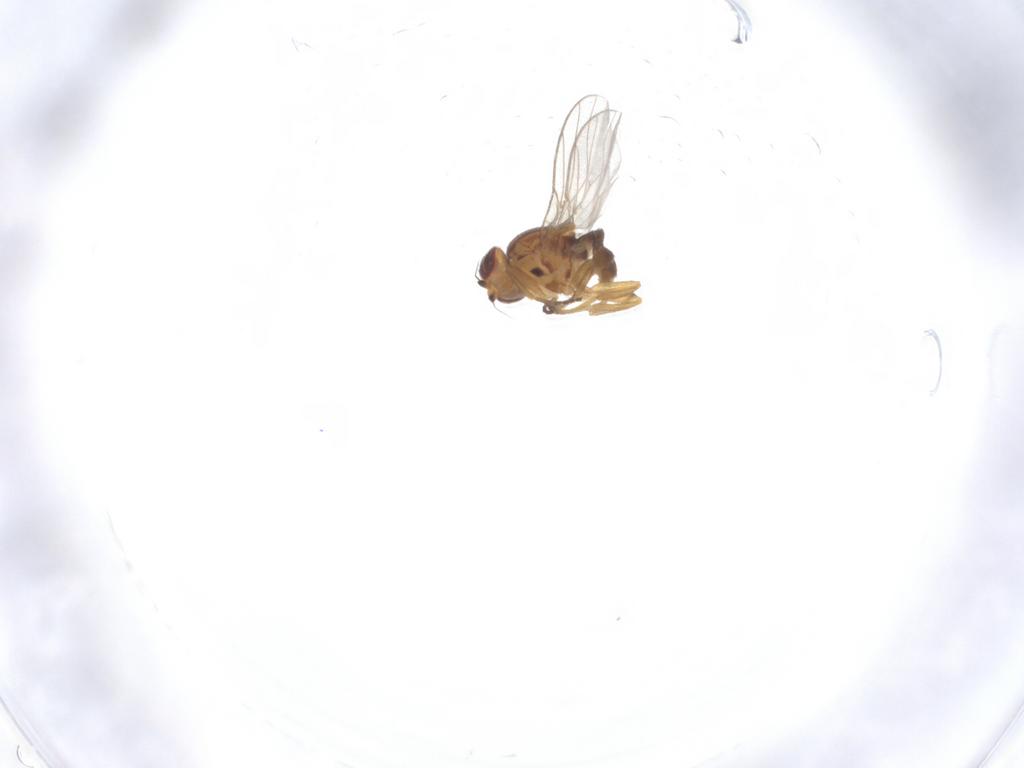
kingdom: Animalia
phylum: Arthropoda
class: Insecta
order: Diptera
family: Chloropidae
